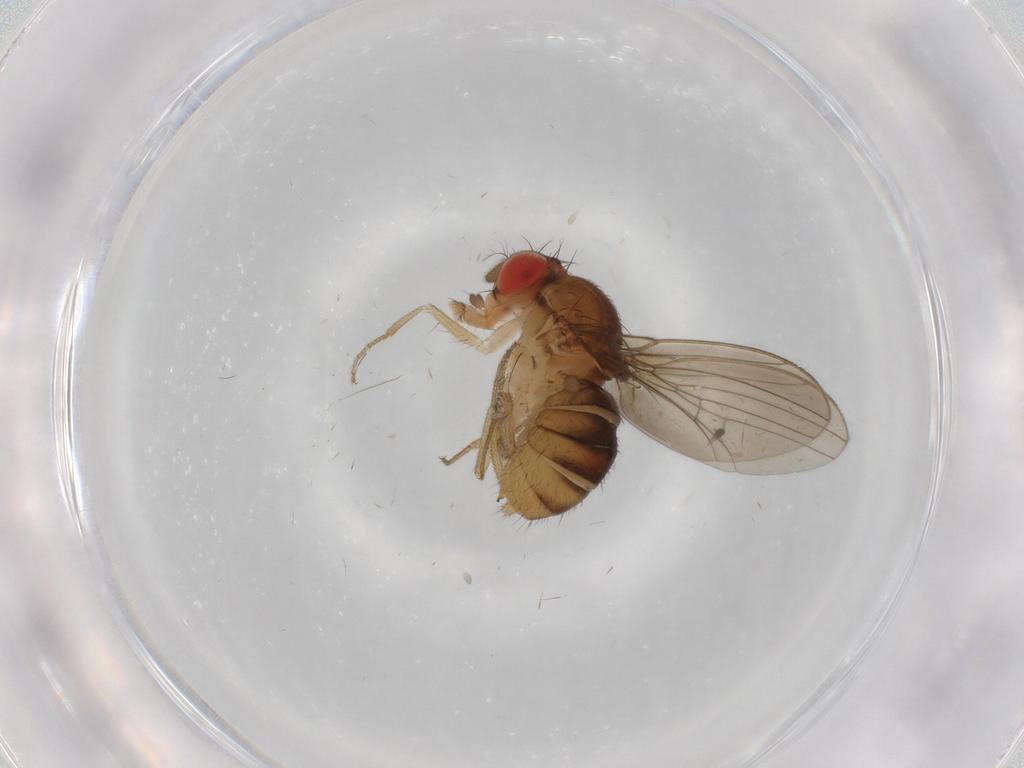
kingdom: Animalia
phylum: Arthropoda
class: Insecta
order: Diptera
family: Drosophilidae
